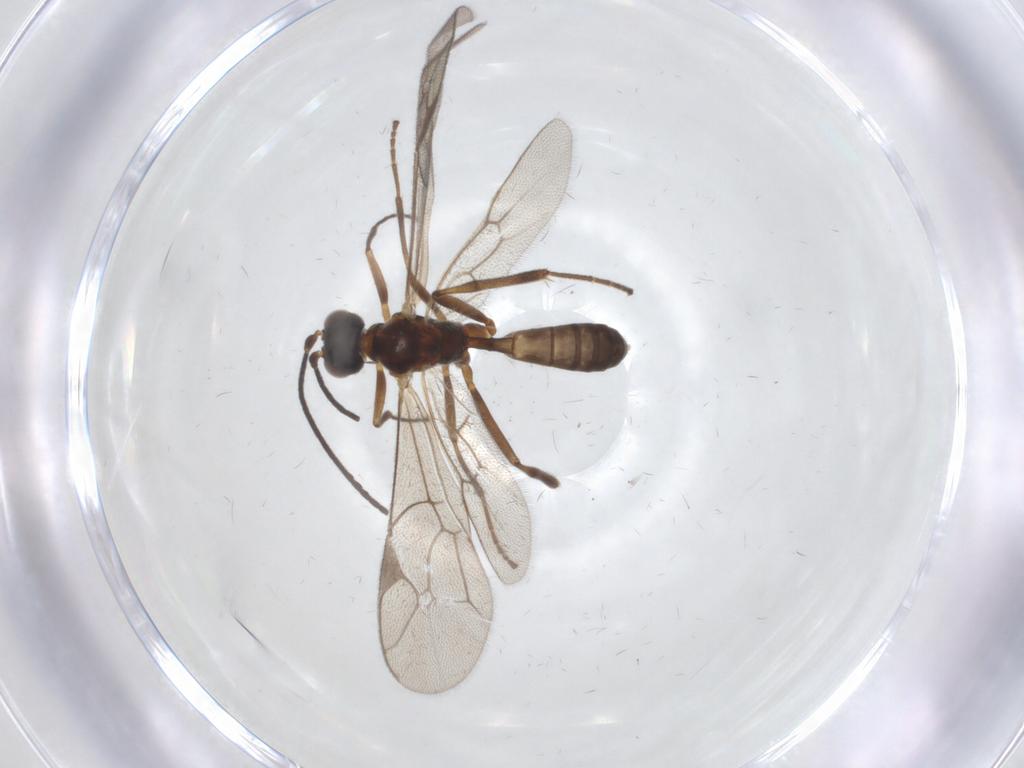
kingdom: Animalia
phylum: Arthropoda
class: Insecta
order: Hymenoptera
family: Ichneumonidae
